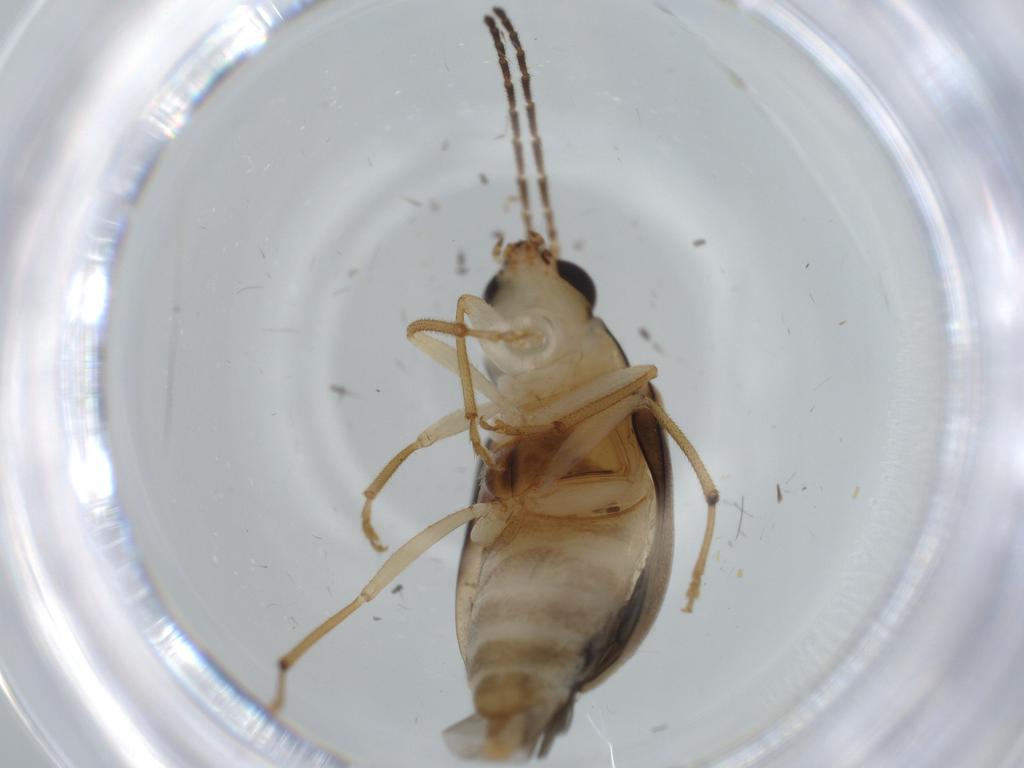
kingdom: Animalia
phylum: Arthropoda
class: Insecta
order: Coleoptera
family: Chrysomelidae
